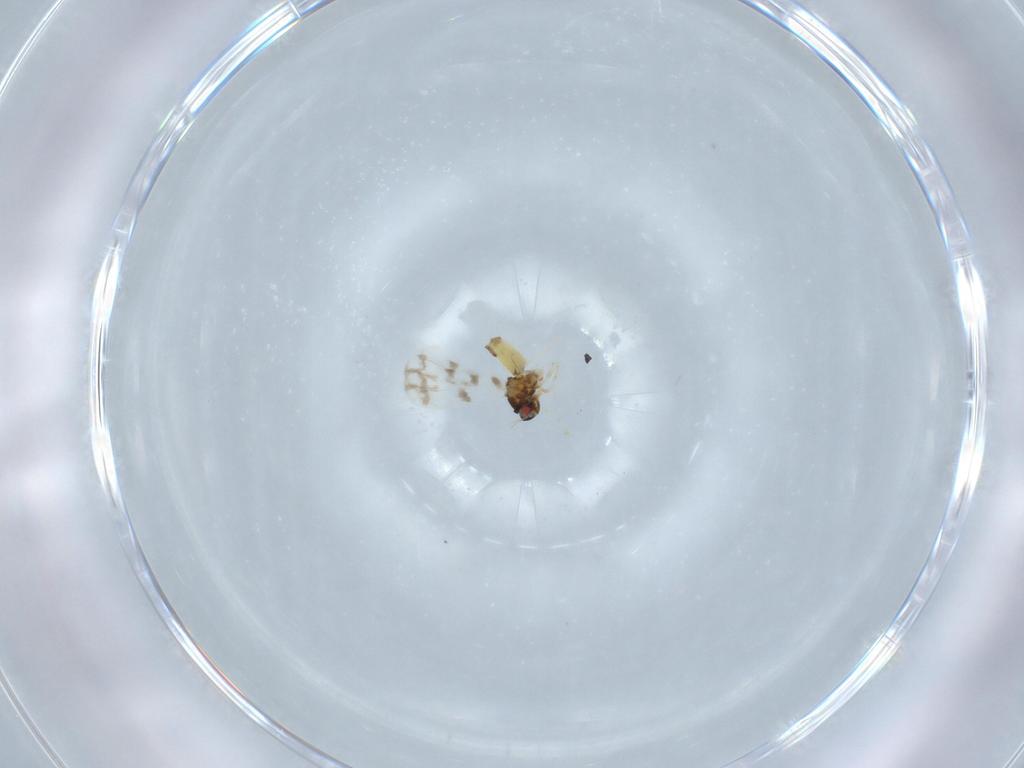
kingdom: Animalia
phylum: Arthropoda
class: Insecta
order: Hemiptera
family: Aleyrodidae
